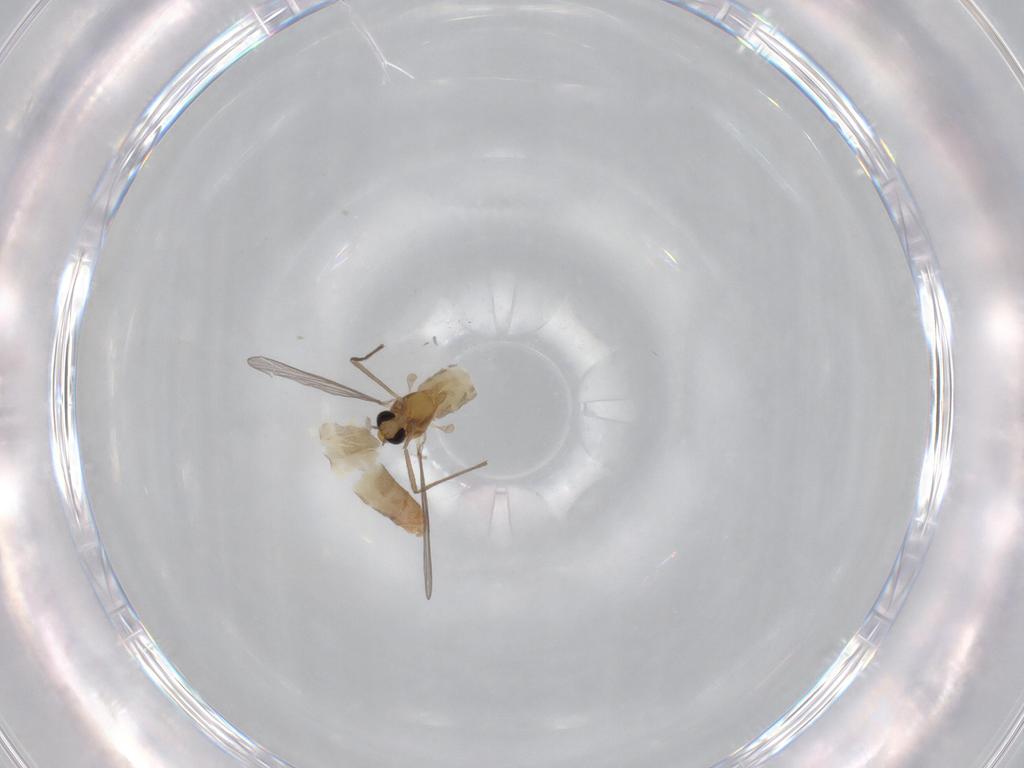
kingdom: Animalia
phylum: Arthropoda
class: Insecta
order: Diptera
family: Chironomidae
